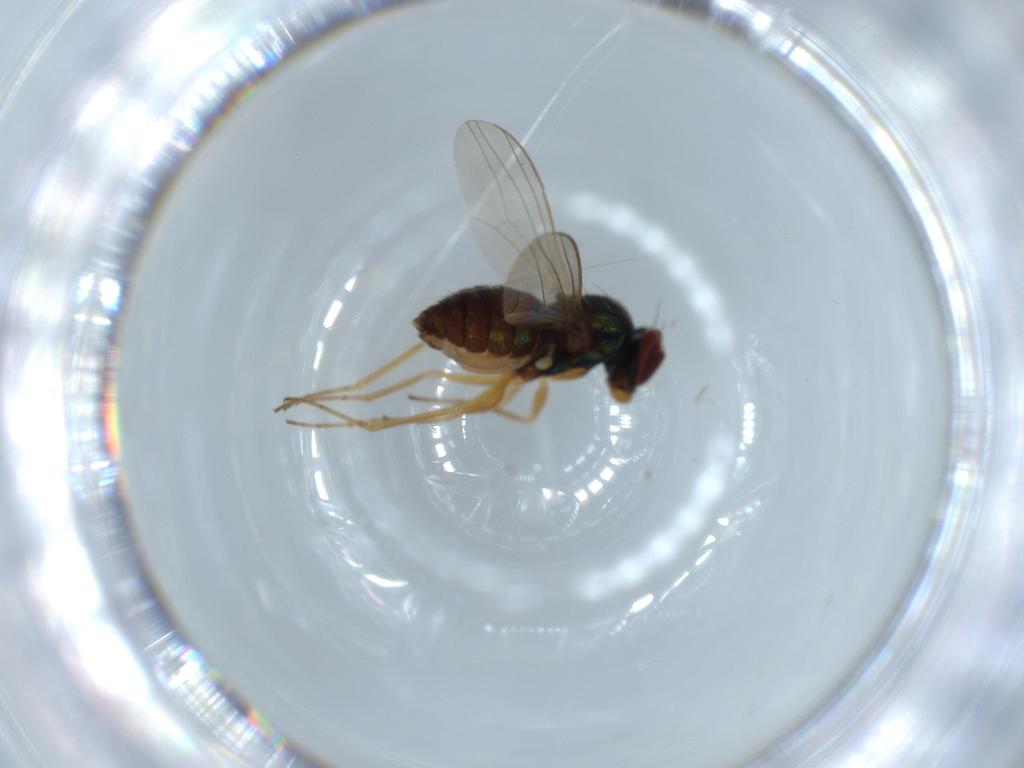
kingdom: Animalia
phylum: Arthropoda
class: Insecta
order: Diptera
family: Dolichopodidae
